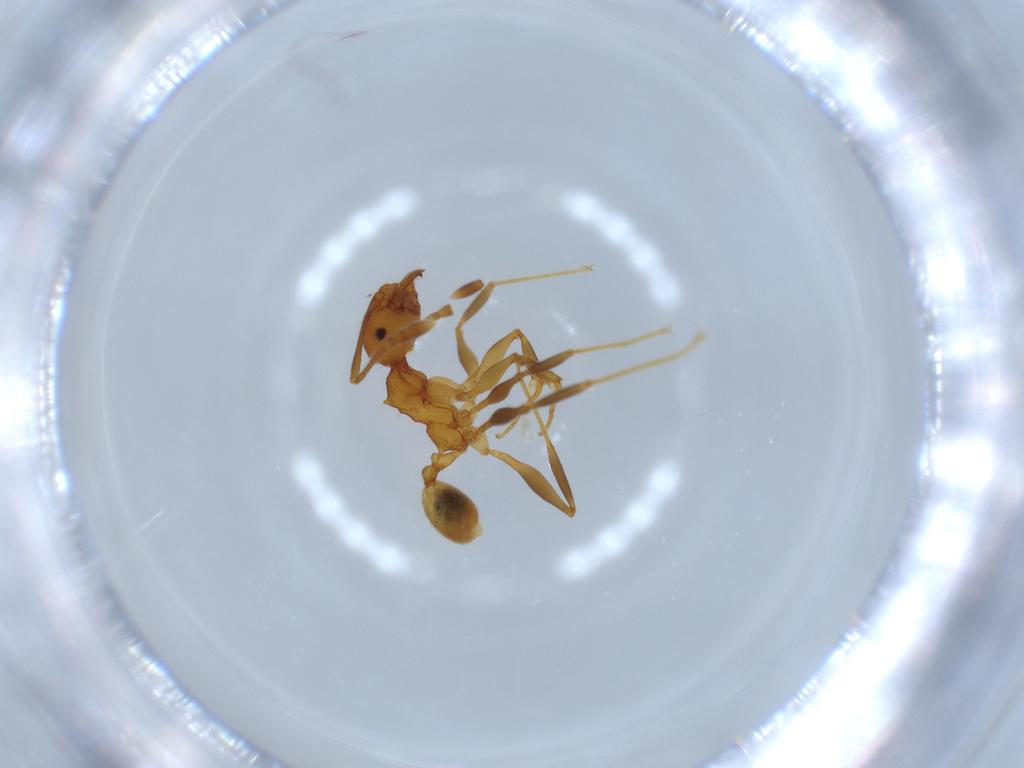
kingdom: Animalia
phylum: Arthropoda
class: Insecta
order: Hymenoptera
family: Formicidae
